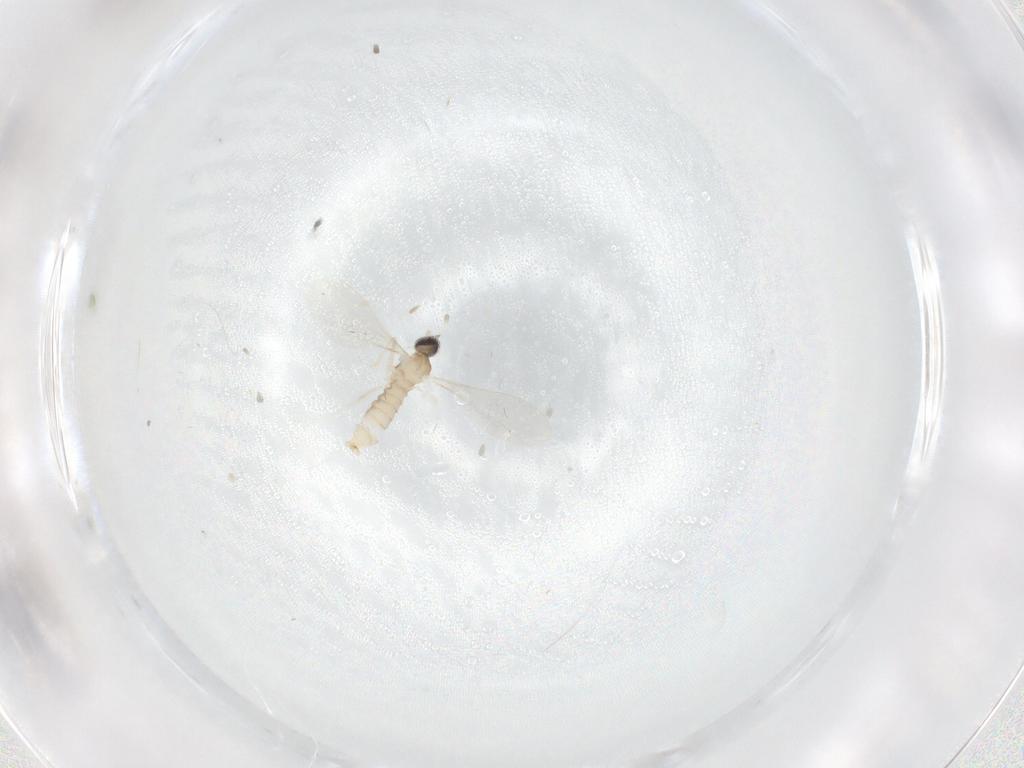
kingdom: Animalia
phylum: Arthropoda
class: Insecta
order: Diptera
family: Cecidomyiidae
